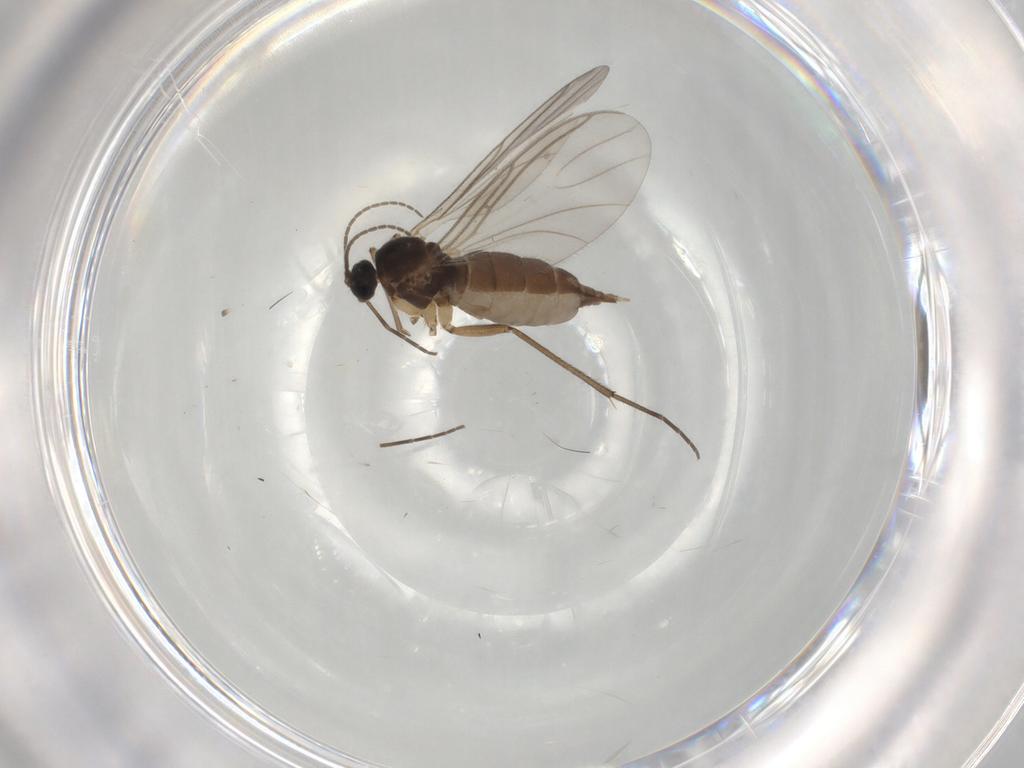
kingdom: Animalia
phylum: Arthropoda
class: Insecta
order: Diptera
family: Sciaridae
